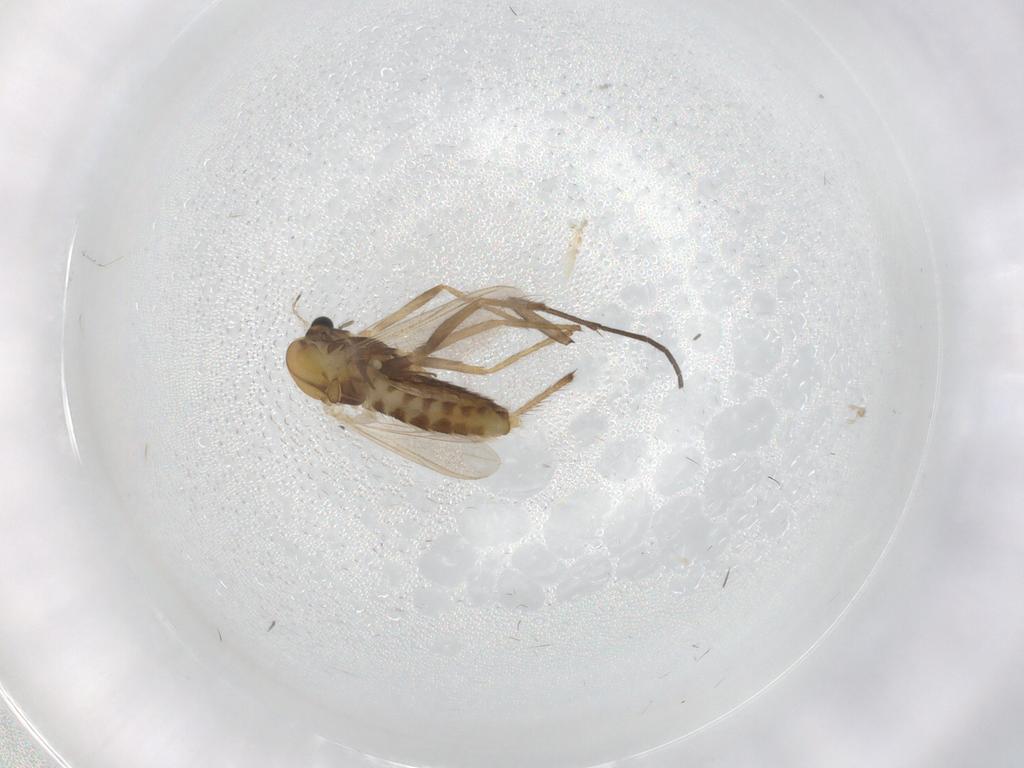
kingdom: Animalia
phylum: Arthropoda
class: Insecta
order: Diptera
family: Chironomidae
